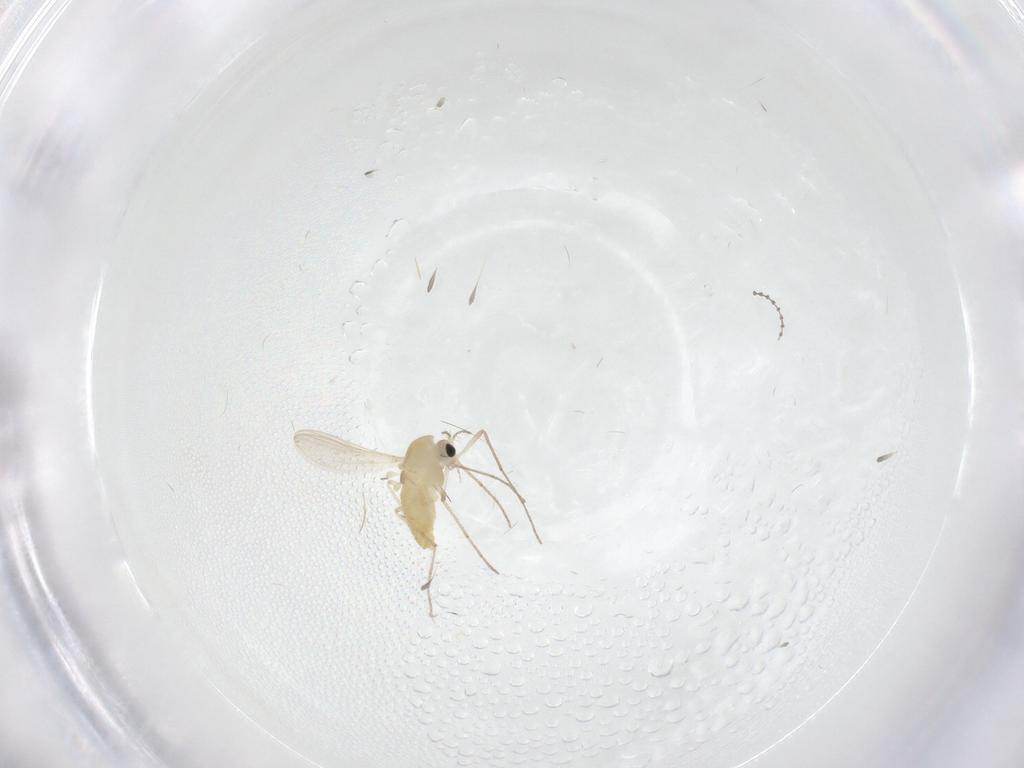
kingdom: Animalia
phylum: Arthropoda
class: Insecta
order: Diptera
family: Chironomidae
